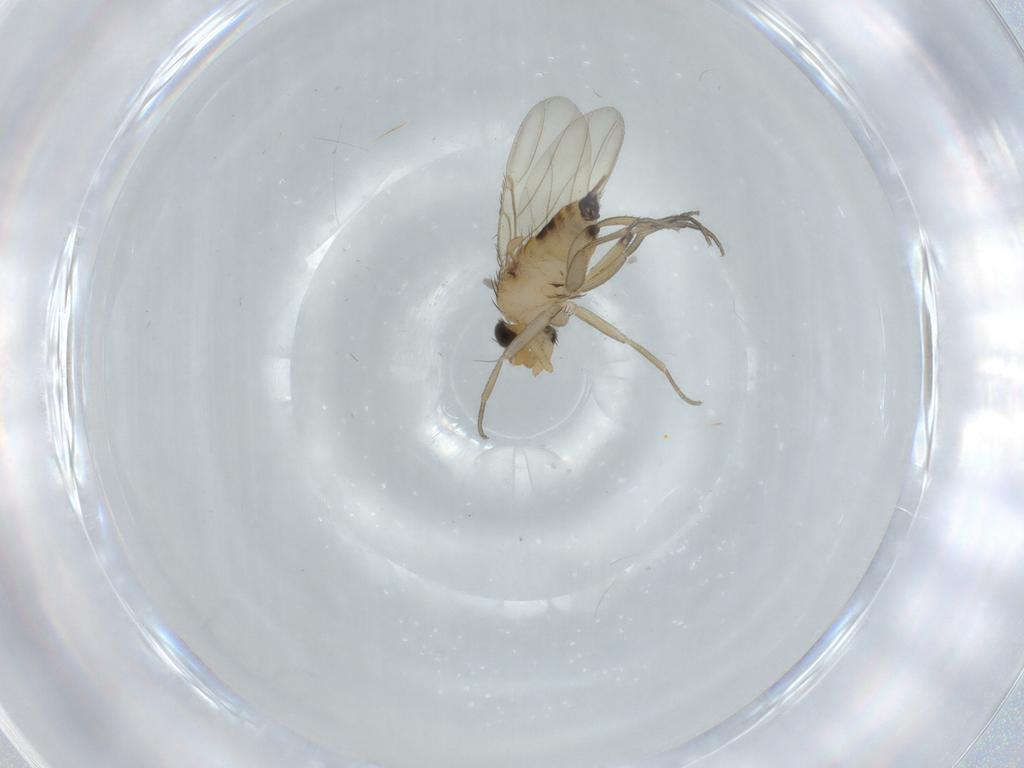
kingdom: Animalia
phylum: Arthropoda
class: Insecta
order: Diptera
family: Phoridae
